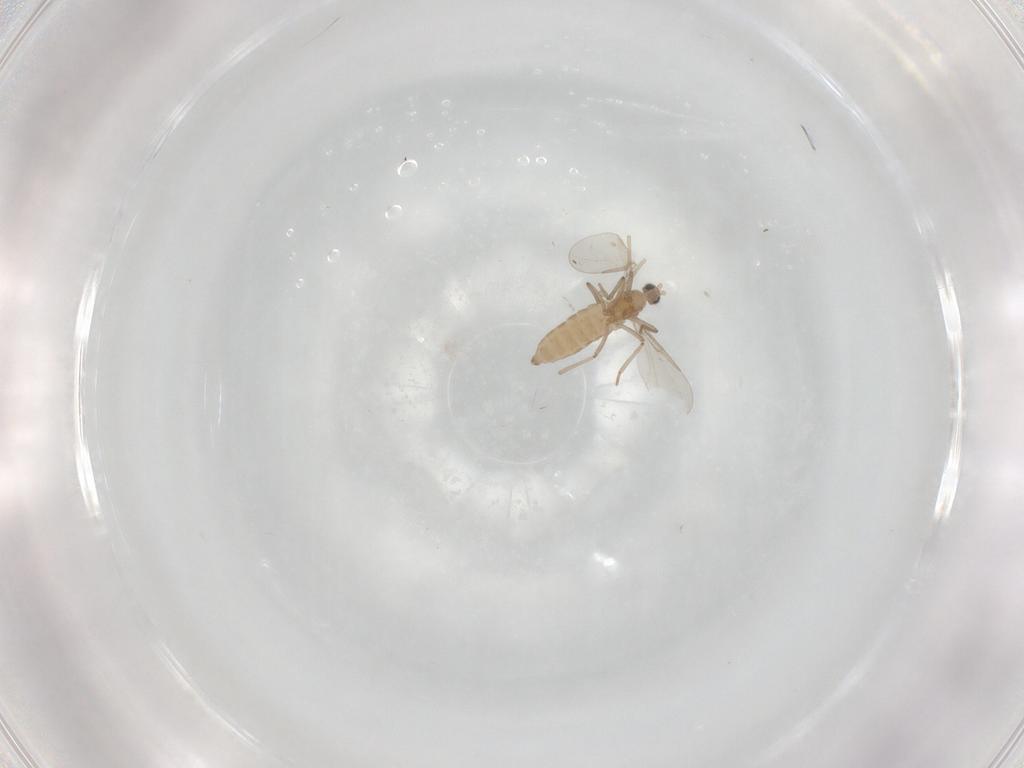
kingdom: Animalia
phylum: Arthropoda
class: Insecta
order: Diptera
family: Cecidomyiidae
